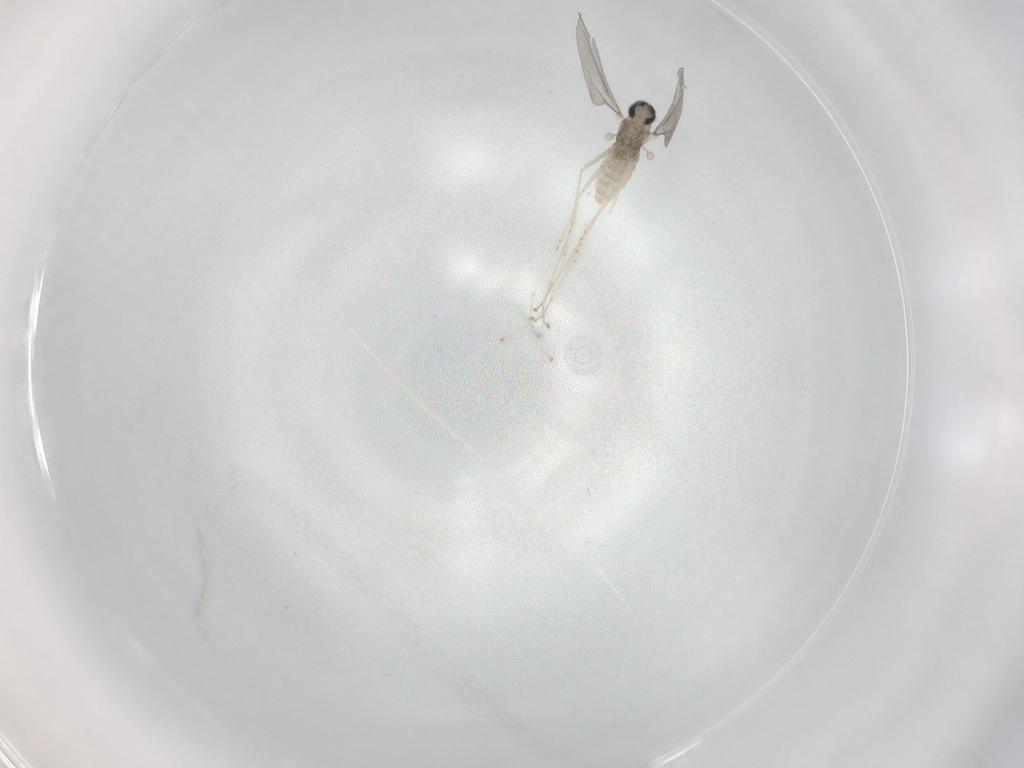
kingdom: Animalia
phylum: Arthropoda
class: Insecta
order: Diptera
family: Cecidomyiidae
